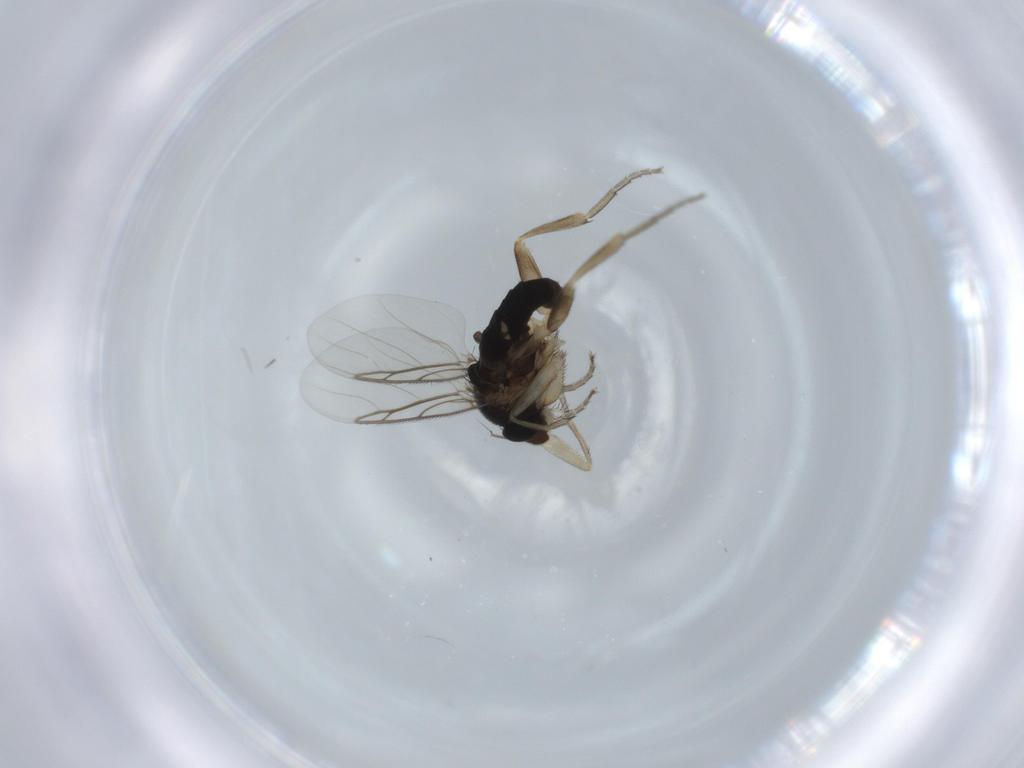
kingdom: Animalia
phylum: Arthropoda
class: Insecta
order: Diptera
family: Phoridae
